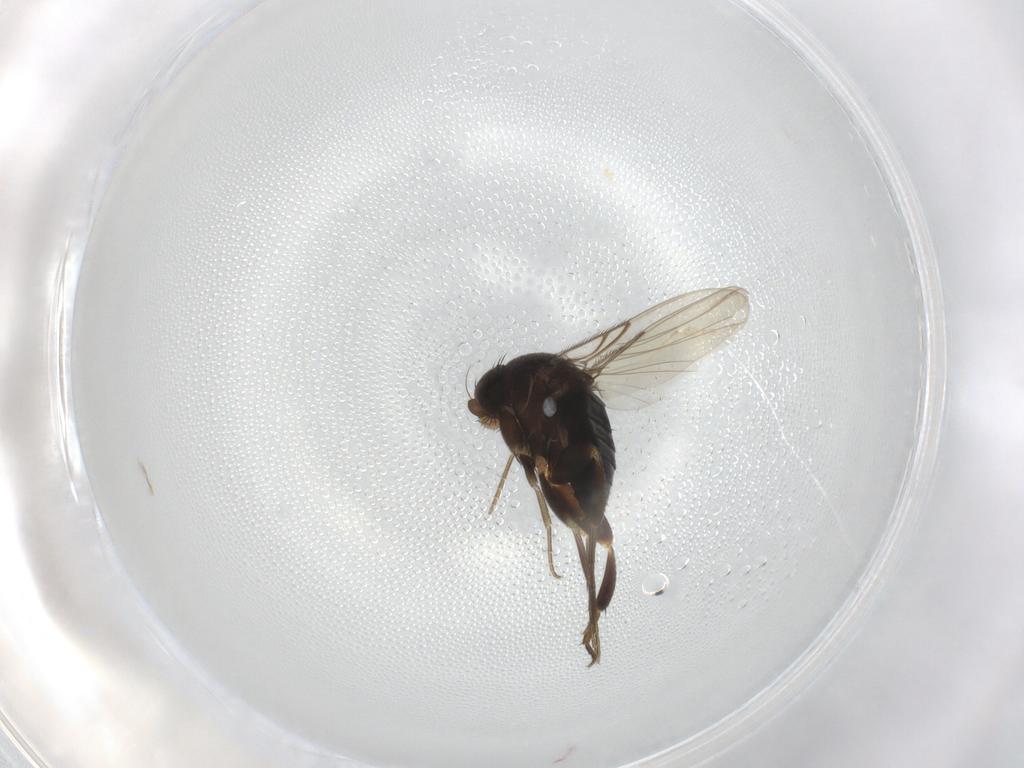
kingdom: Animalia
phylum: Arthropoda
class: Insecta
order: Diptera
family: Phoridae
